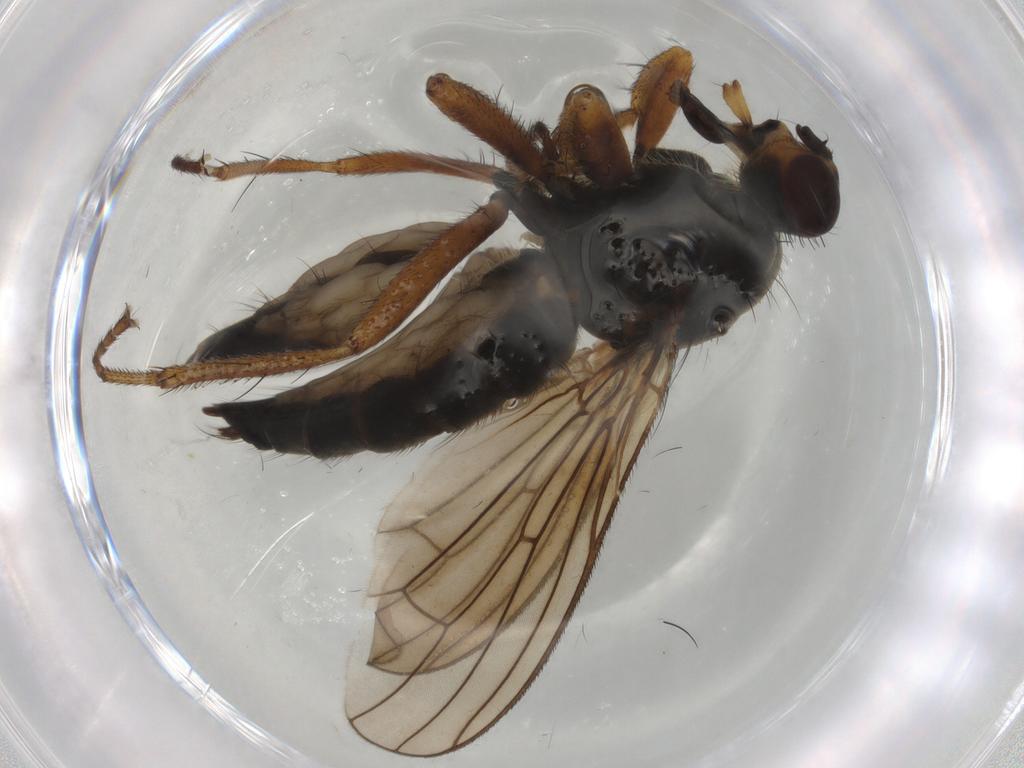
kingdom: Animalia
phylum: Arthropoda
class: Insecta
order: Diptera
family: Scathophagidae
